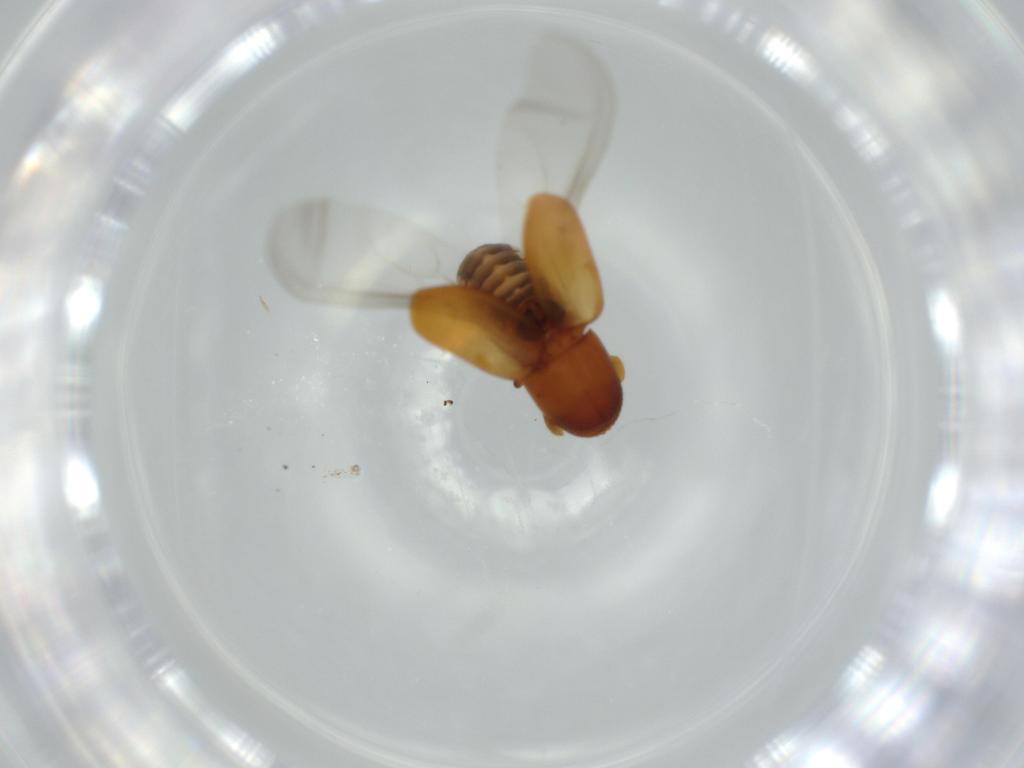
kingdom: Animalia
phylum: Arthropoda
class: Insecta
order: Coleoptera
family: Curculionidae
